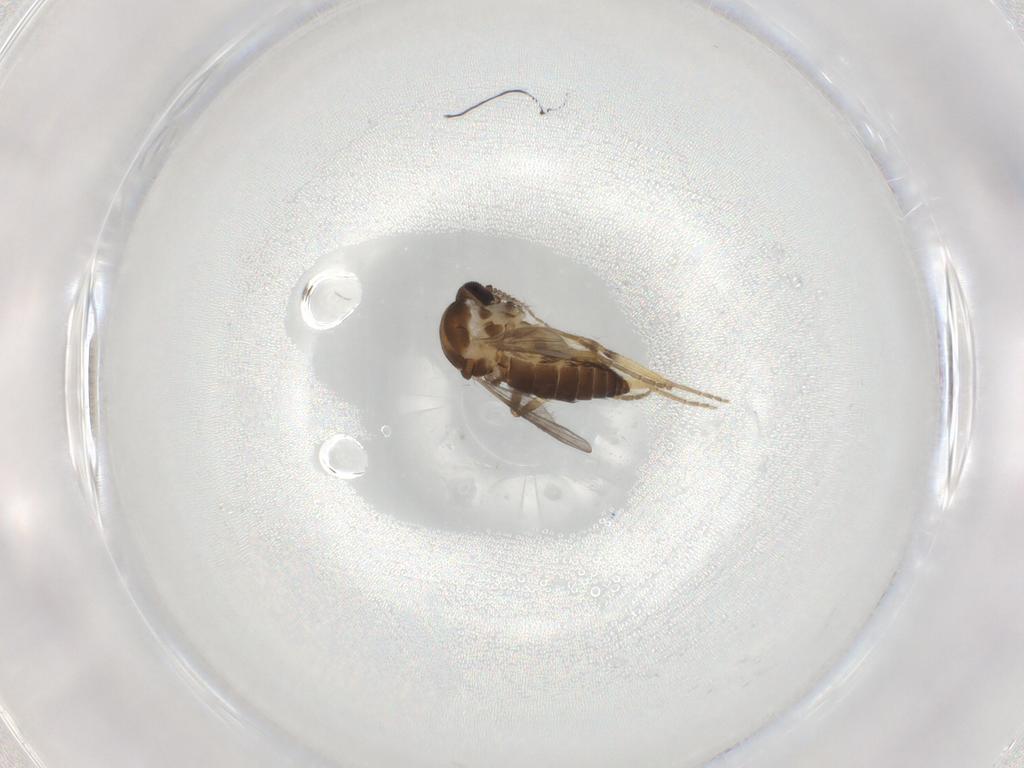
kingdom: Animalia
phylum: Arthropoda
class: Insecta
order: Diptera
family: Ceratopogonidae
